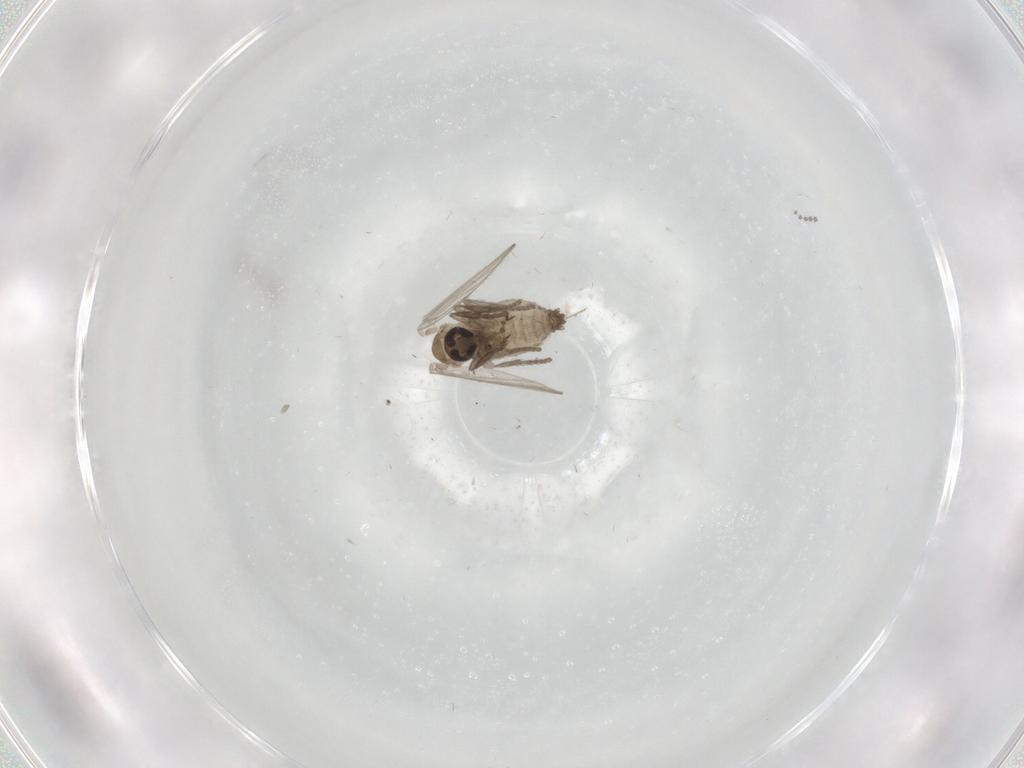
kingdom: Animalia
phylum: Arthropoda
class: Insecta
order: Diptera
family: Psychodidae
